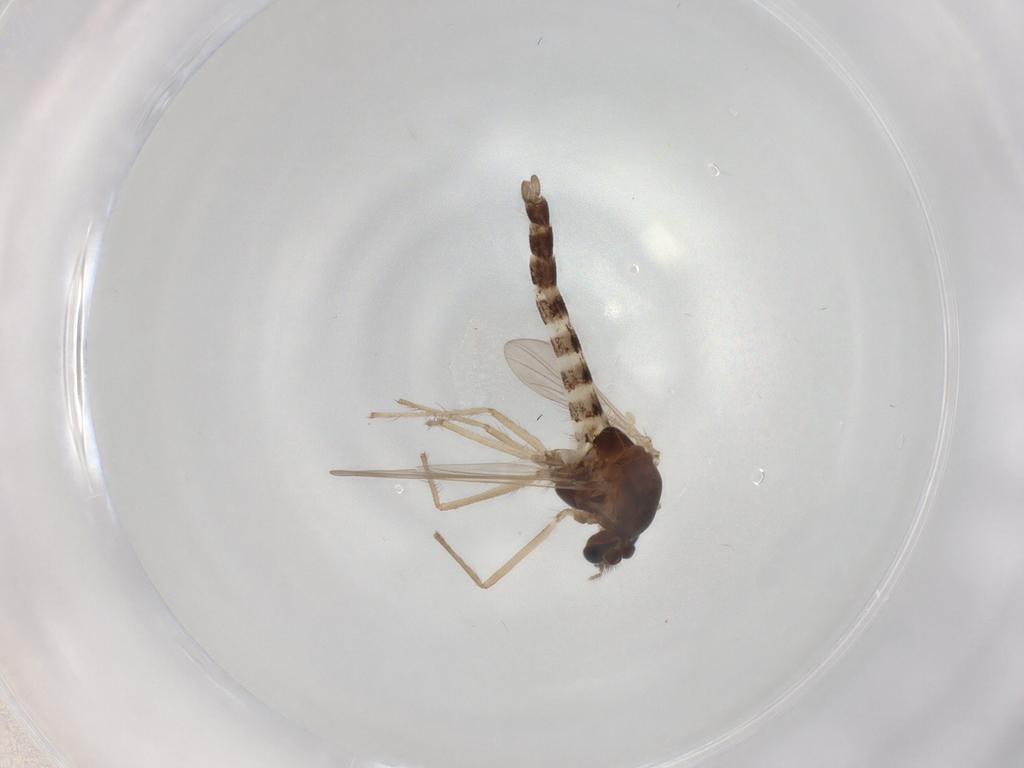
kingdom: Animalia
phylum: Arthropoda
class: Insecta
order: Diptera
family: Chironomidae
